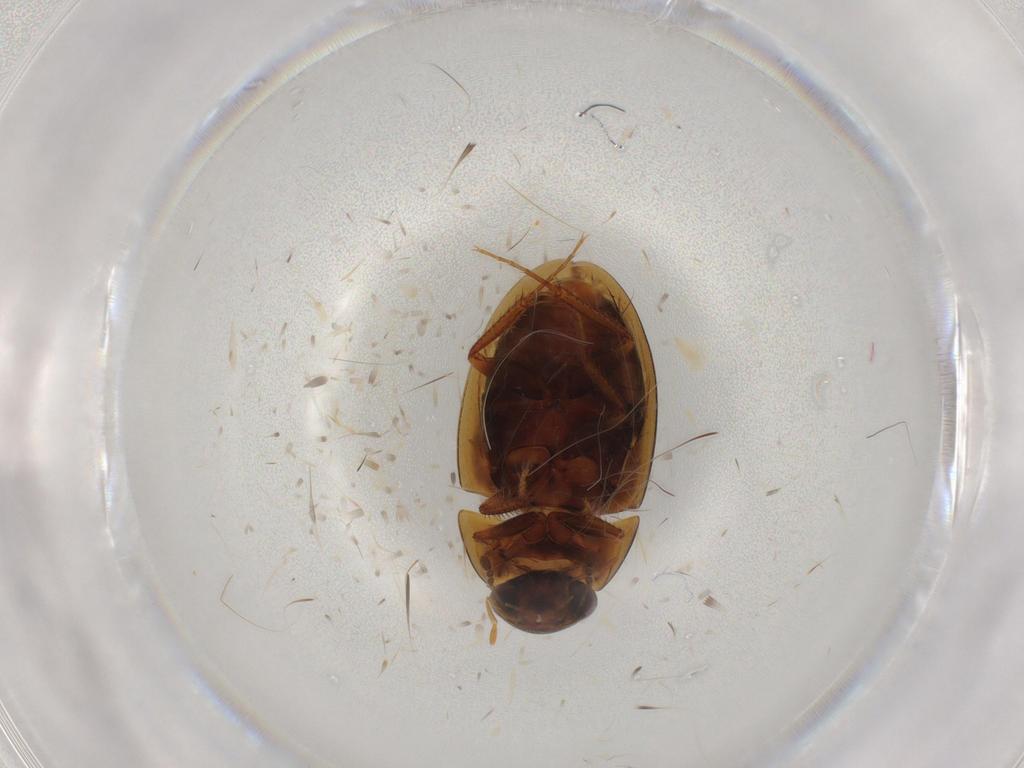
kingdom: Animalia
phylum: Arthropoda
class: Insecta
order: Coleoptera
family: Hydrophilidae
